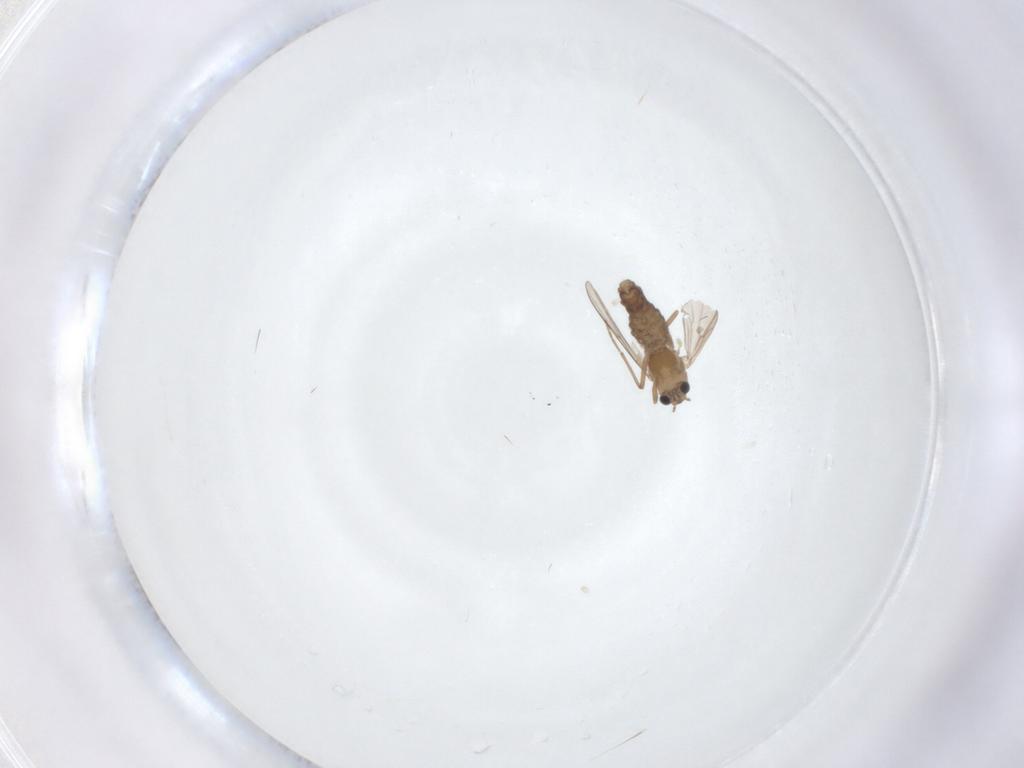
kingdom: Animalia
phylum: Arthropoda
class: Insecta
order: Diptera
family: Chironomidae
